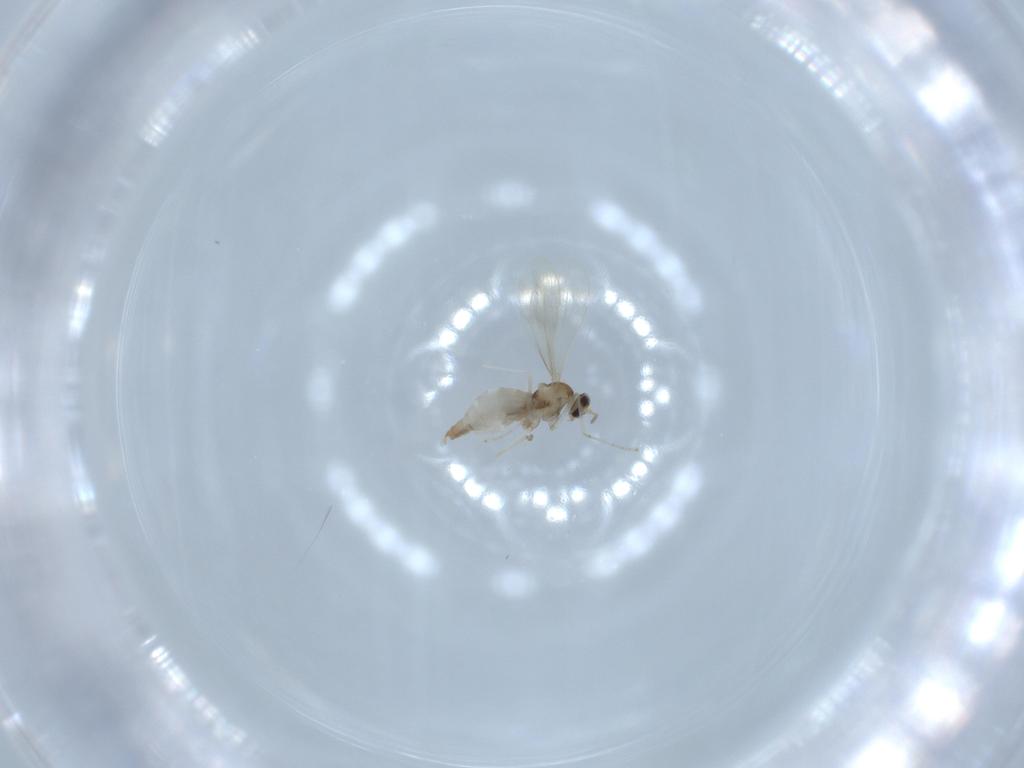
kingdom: Animalia
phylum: Arthropoda
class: Insecta
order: Diptera
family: Cecidomyiidae
